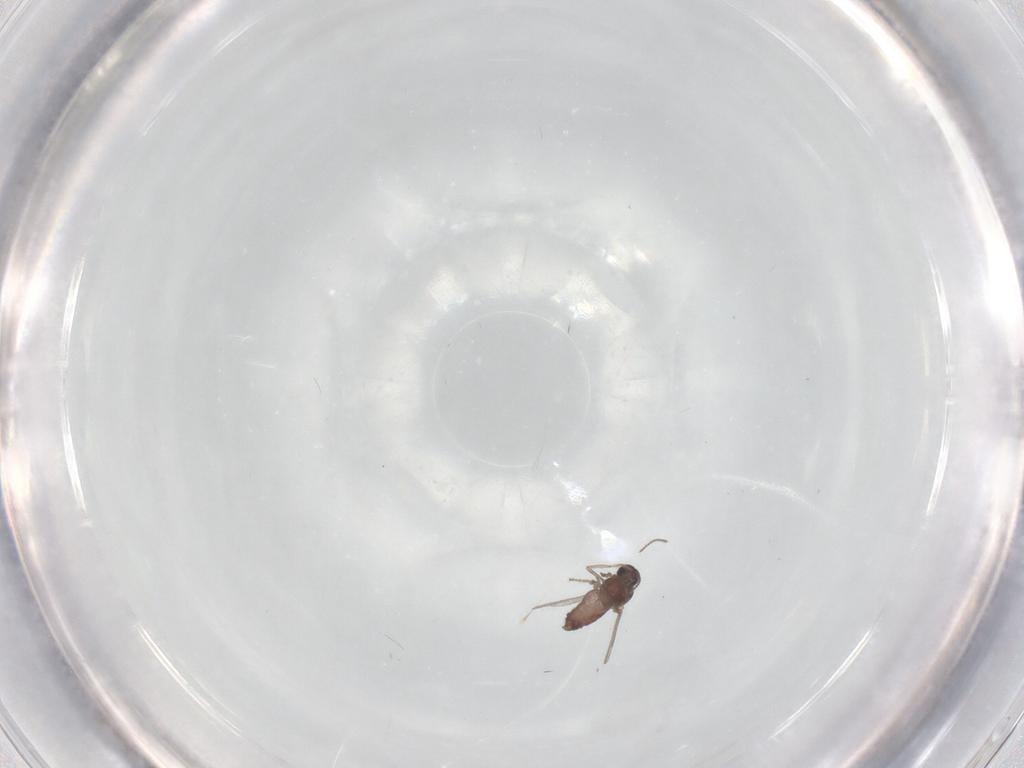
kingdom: Animalia
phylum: Arthropoda
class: Insecta
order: Diptera
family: Ceratopogonidae
